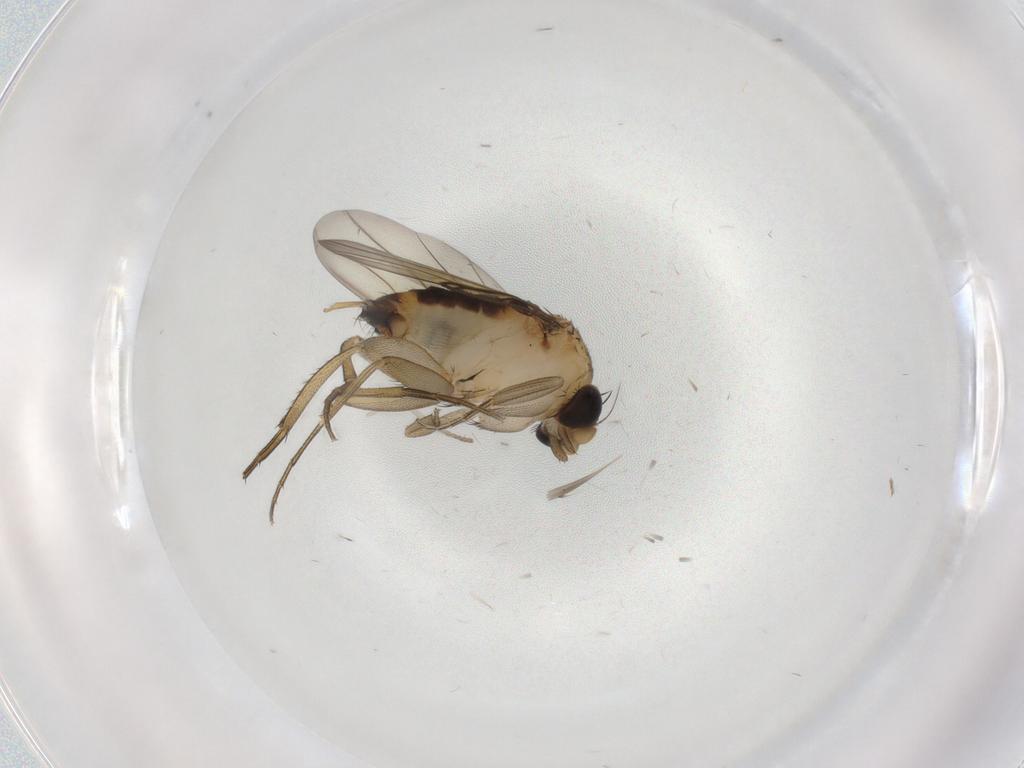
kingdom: Animalia
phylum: Arthropoda
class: Insecta
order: Diptera
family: Chironomidae
